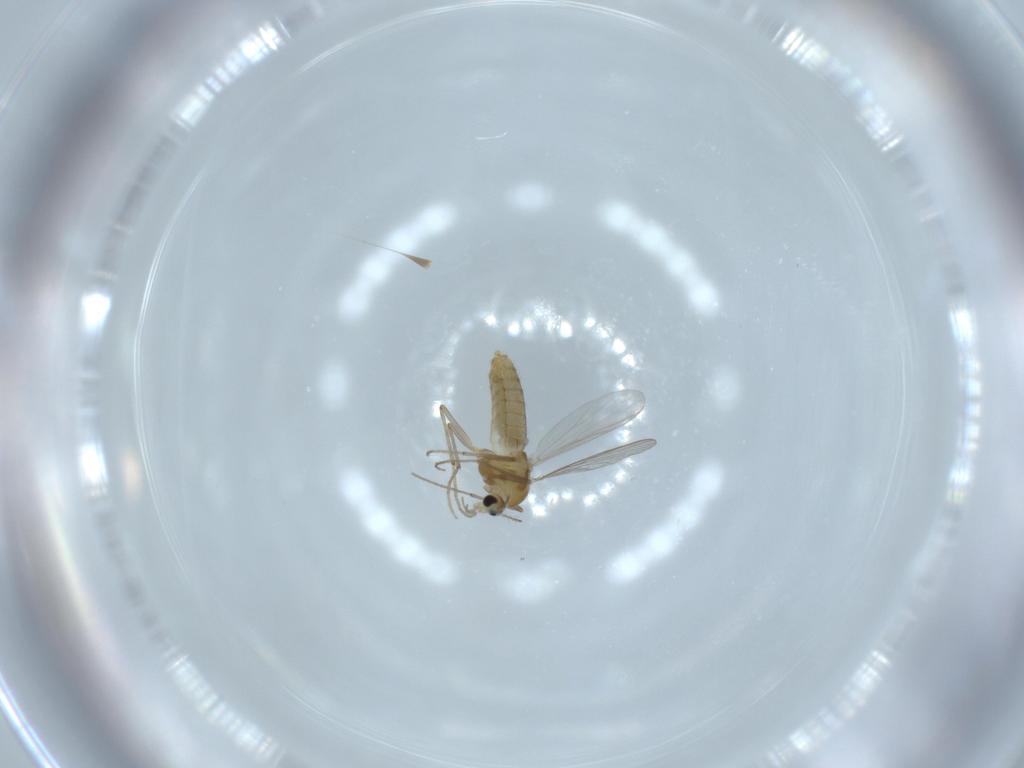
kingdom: Animalia
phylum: Arthropoda
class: Insecta
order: Diptera
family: Chironomidae
